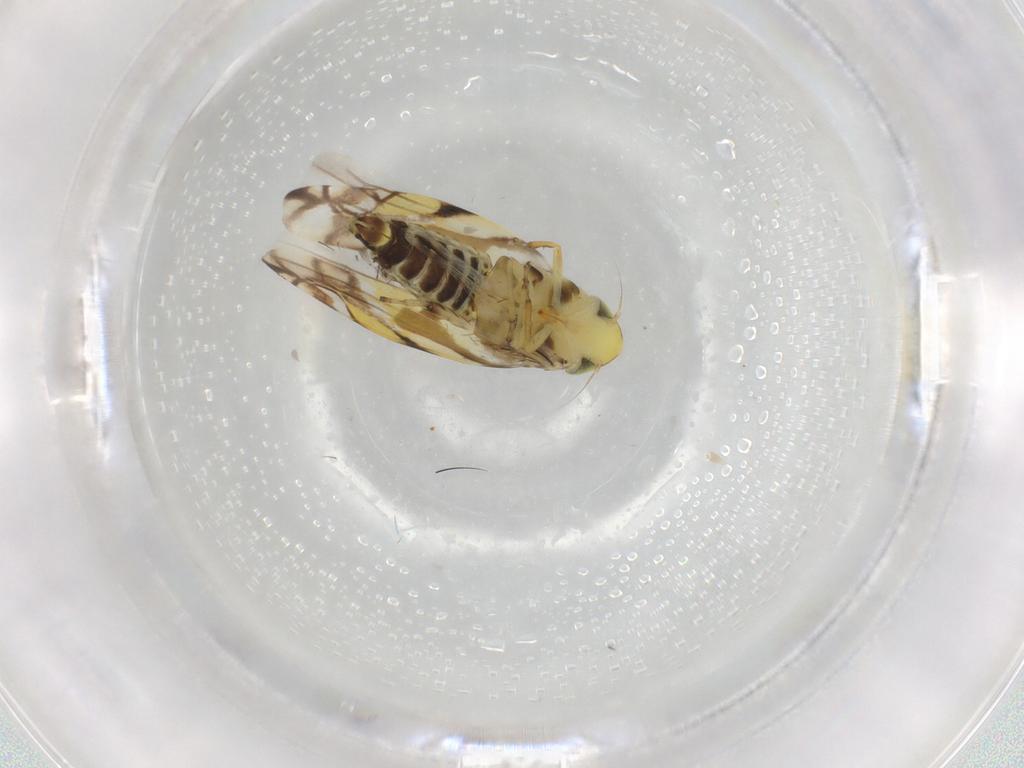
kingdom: Animalia
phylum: Arthropoda
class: Insecta
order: Hemiptera
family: Cicadellidae
